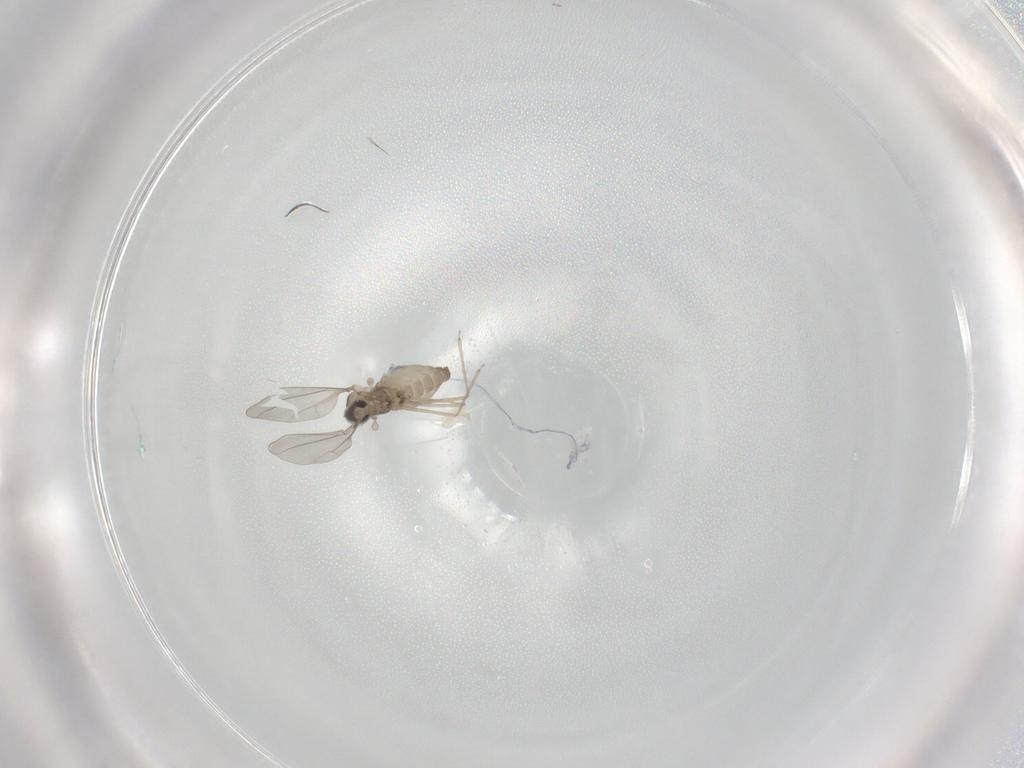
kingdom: Animalia
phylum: Arthropoda
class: Insecta
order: Diptera
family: Cecidomyiidae
